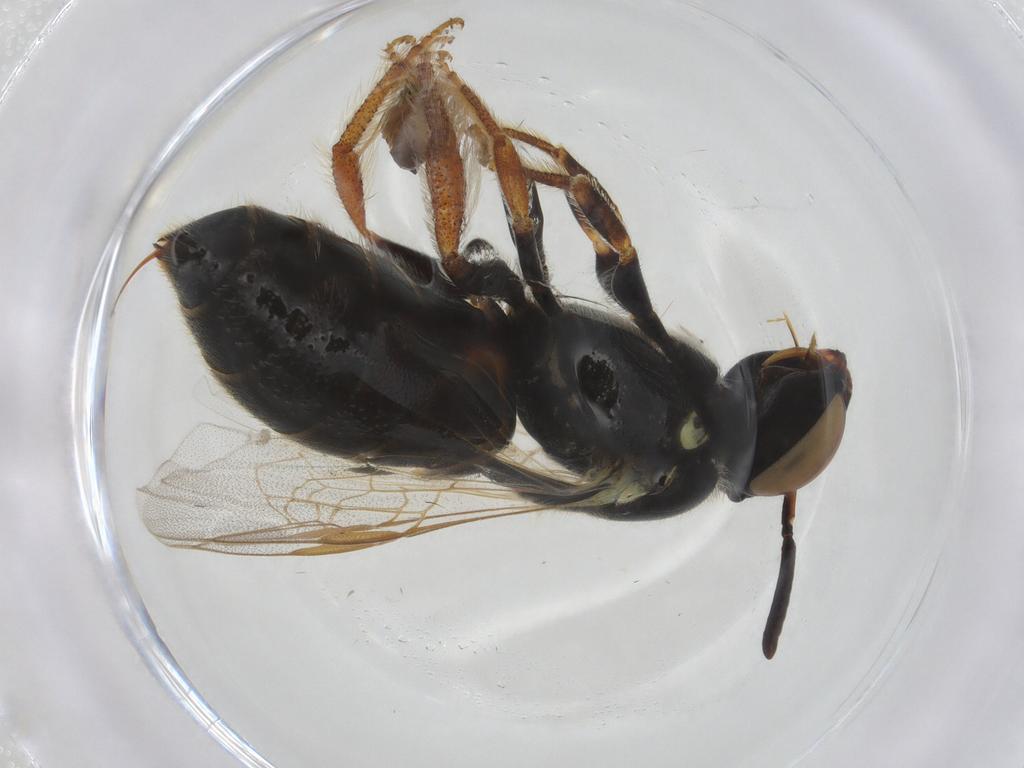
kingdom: Animalia
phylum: Arthropoda
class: Insecta
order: Hymenoptera
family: Apidae
